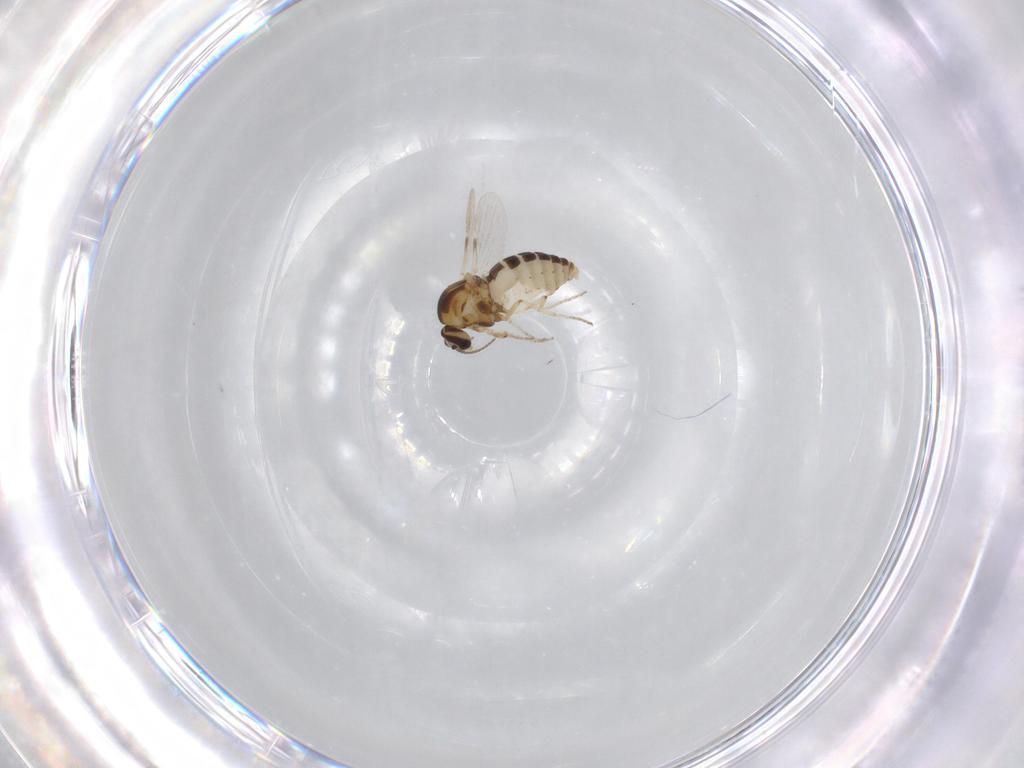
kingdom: Animalia
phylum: Arthropoda
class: Insecta
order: Diptera
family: Ceratopogonidae
